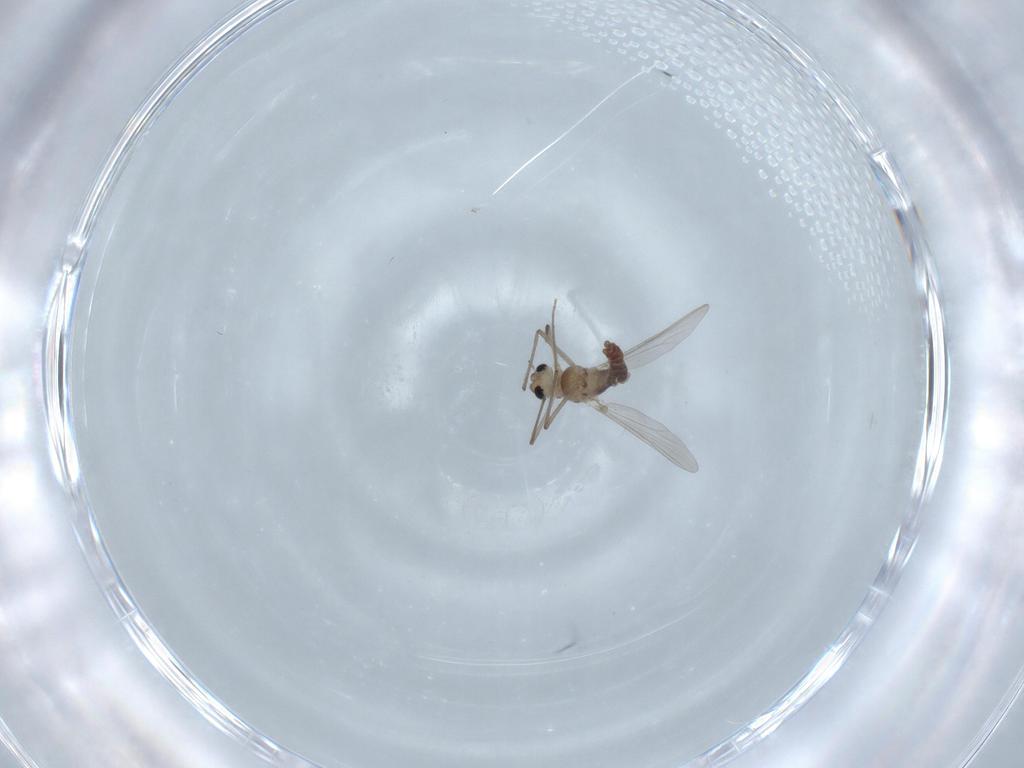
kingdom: Animalia
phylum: Arthropoda
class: Insecta
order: Diptera
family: Chironomidae
